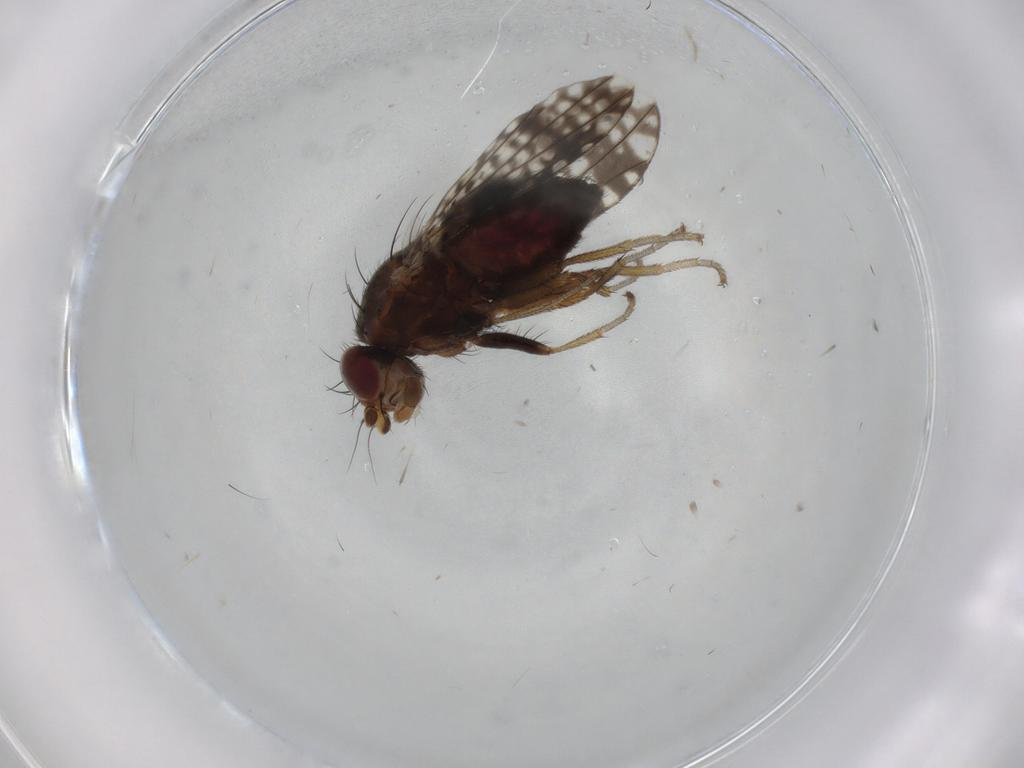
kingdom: Animalia
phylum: Arthropoda
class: Insecta
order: Diptera
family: Tephritidae
